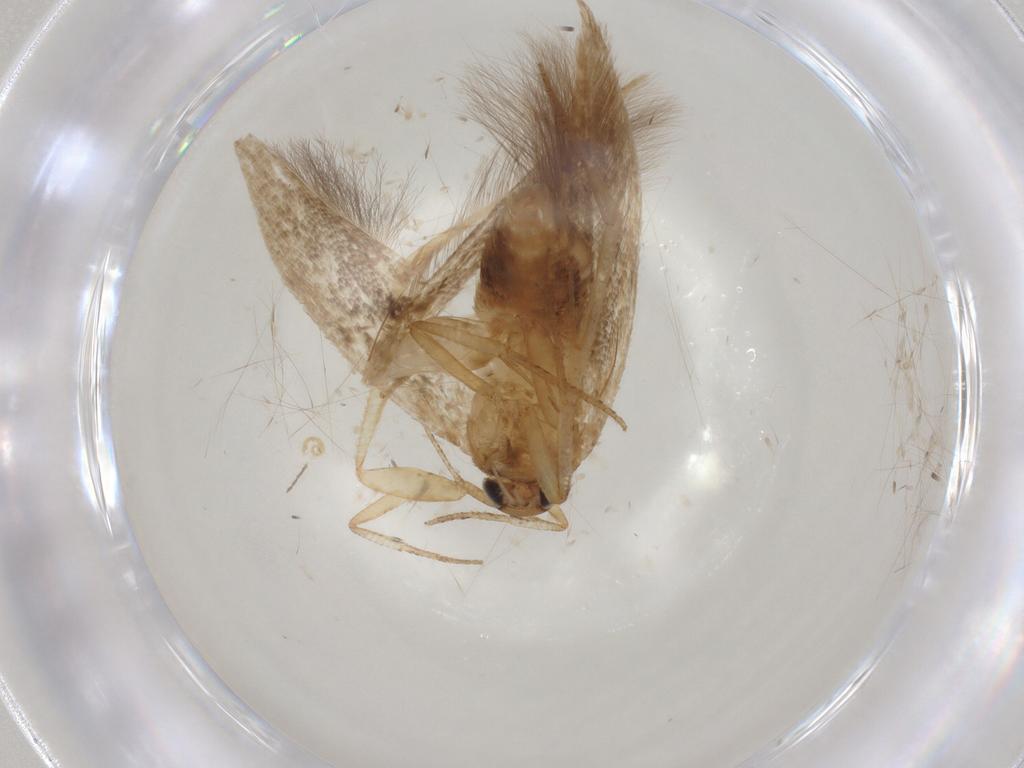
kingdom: Animalia
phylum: Arthropoda
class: Insecta
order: Lepidoptera
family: Cosmopterigidae
